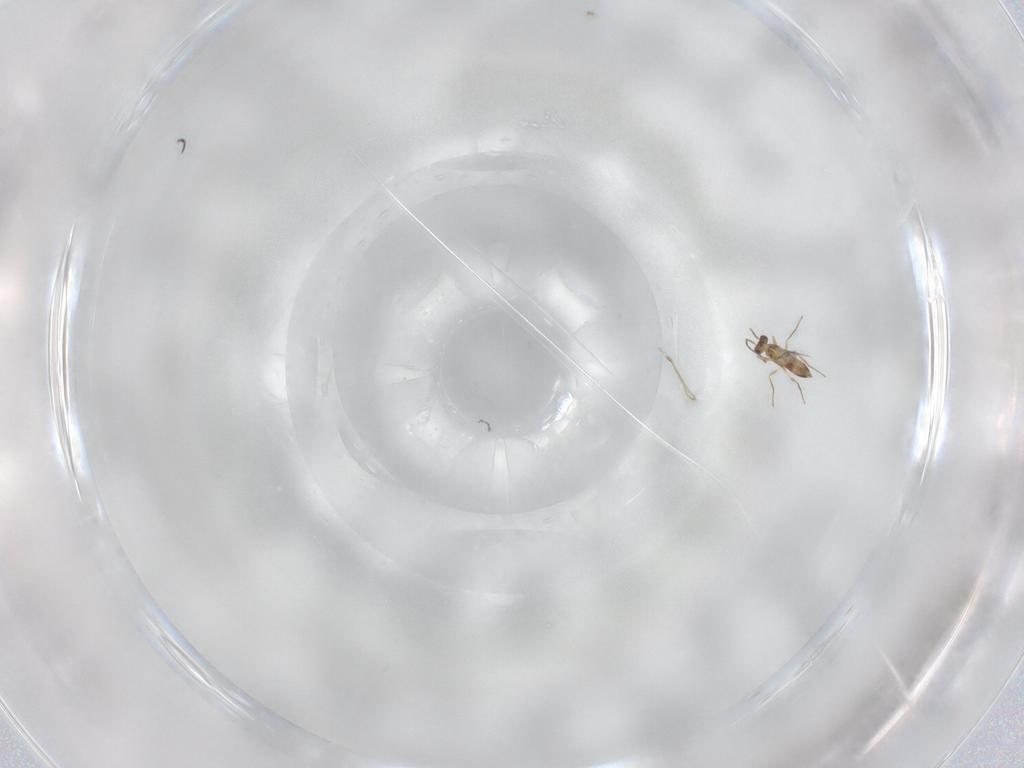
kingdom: Animalia
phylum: Arthropoda
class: Insecta
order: Hymenoptera
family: Mymaridae
